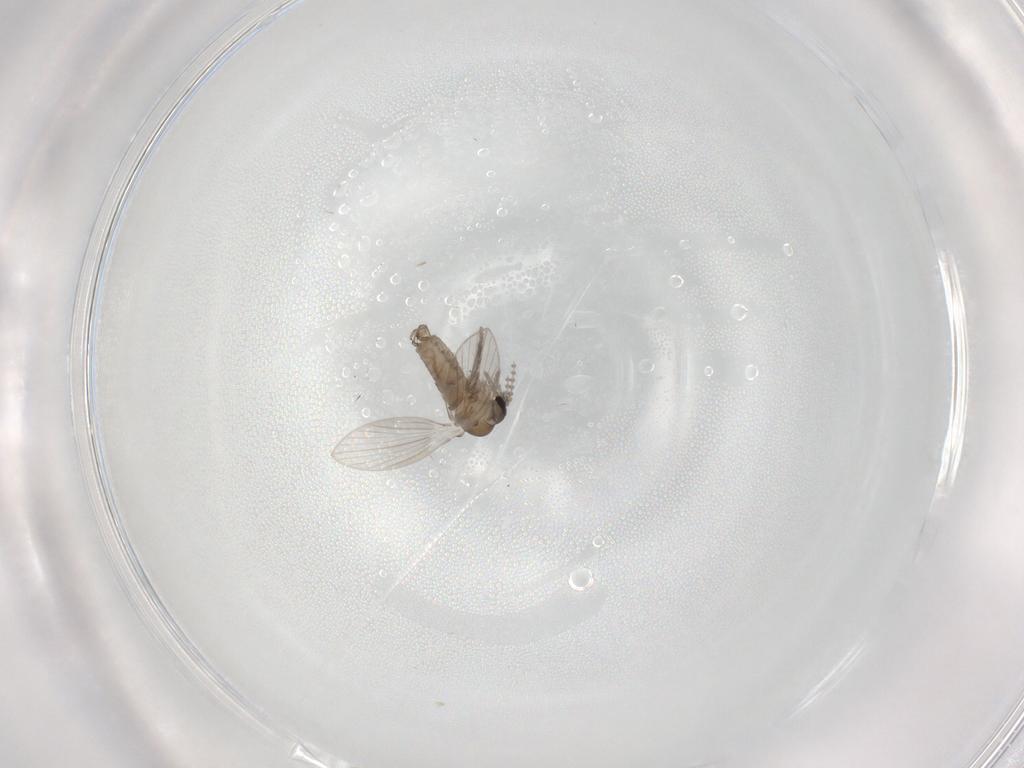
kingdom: Animalia
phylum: Arthropoda
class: Insecta
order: Diptera
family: Psychodidae
